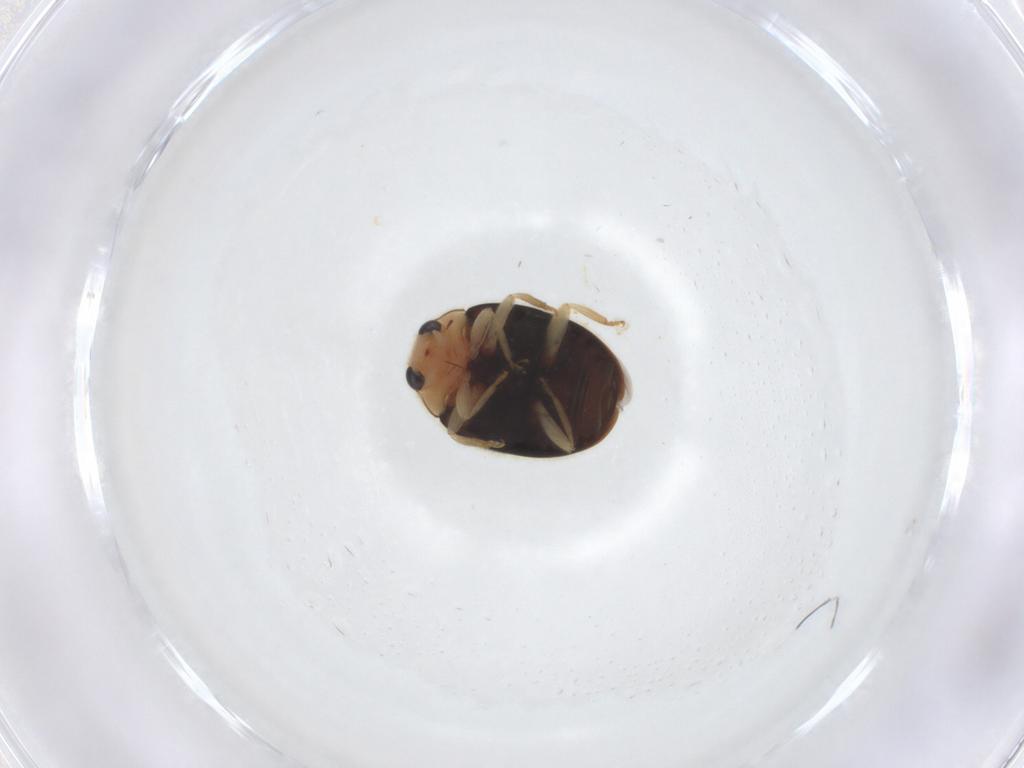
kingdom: Animalia
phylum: Arthropoda
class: Insecta
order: Coleoptera
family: Coccinellidae
